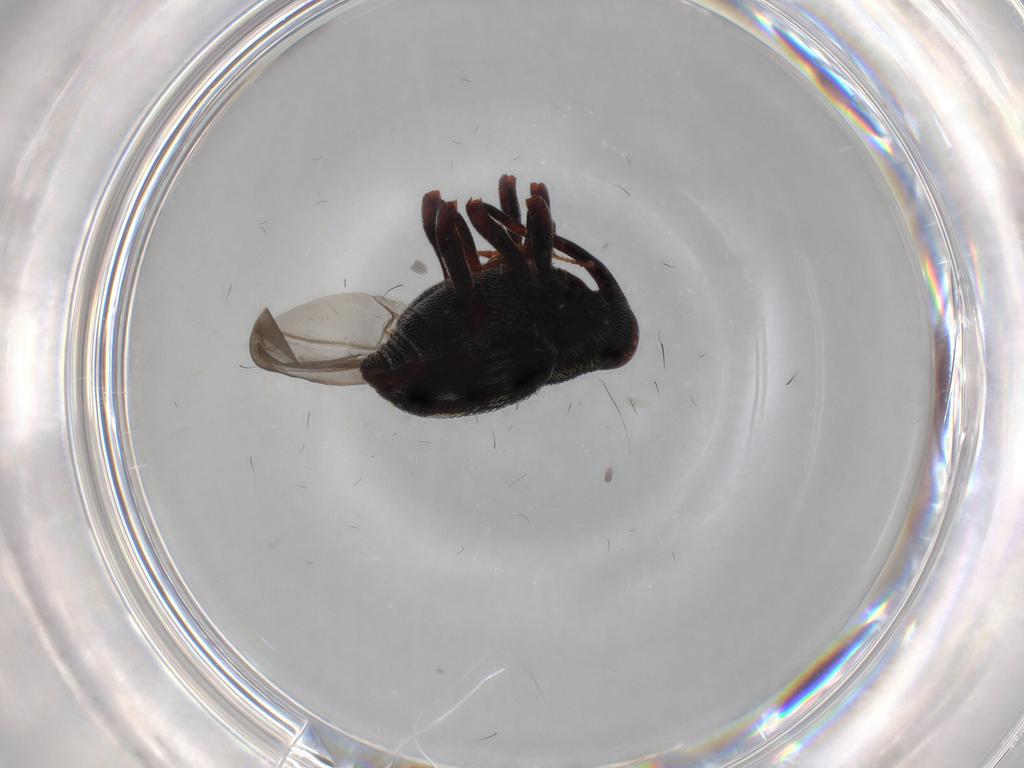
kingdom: Animalia
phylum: Arthropoda
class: Insecta
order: Coleoptera
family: Curculionidae
